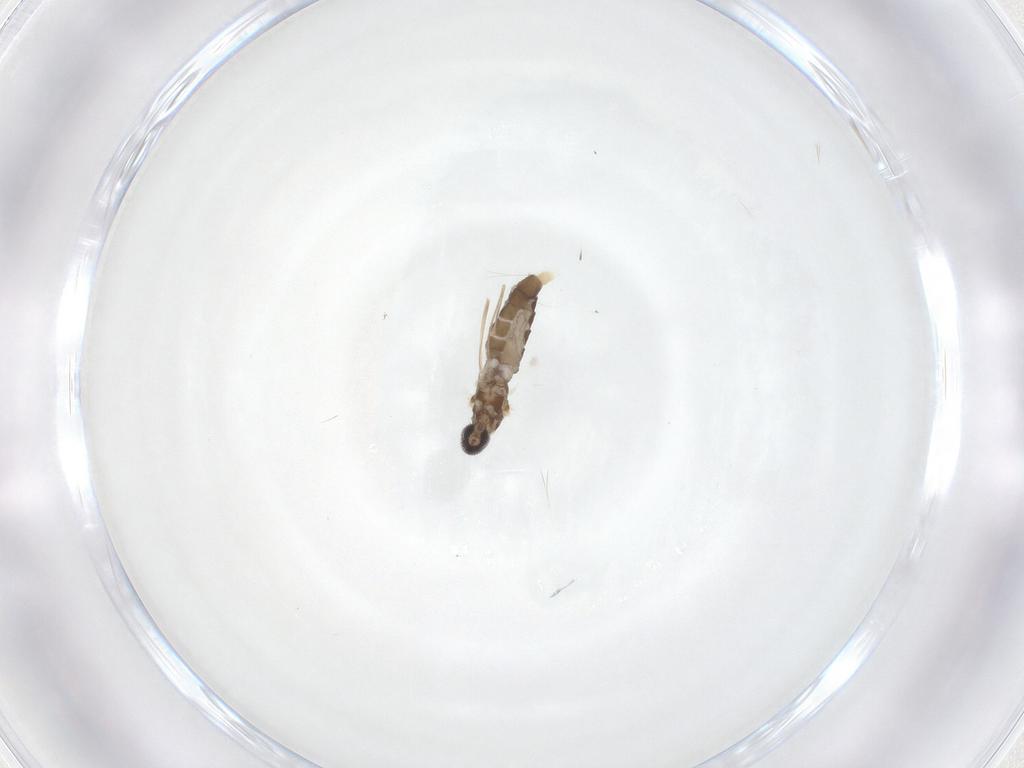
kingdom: Animalia
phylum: Arthropoda
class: Insecta
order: Diptera
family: Cecidomyiidae
